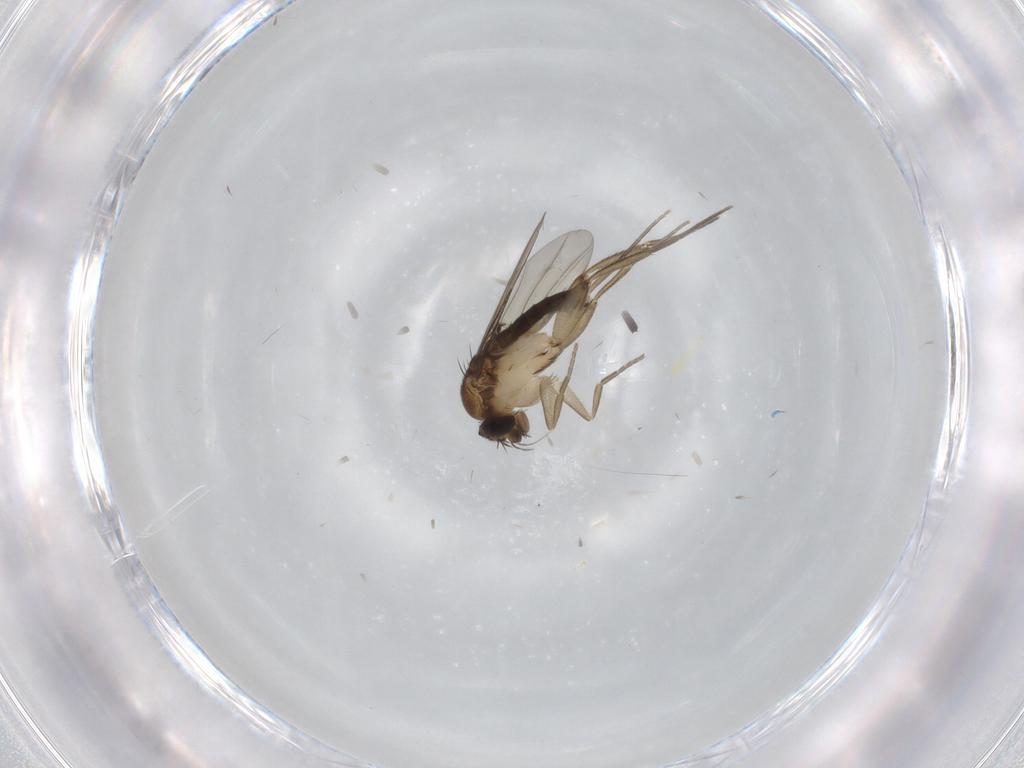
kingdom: Animalia
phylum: Arthropoda
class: Insecta
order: Diptera
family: Phoridae
